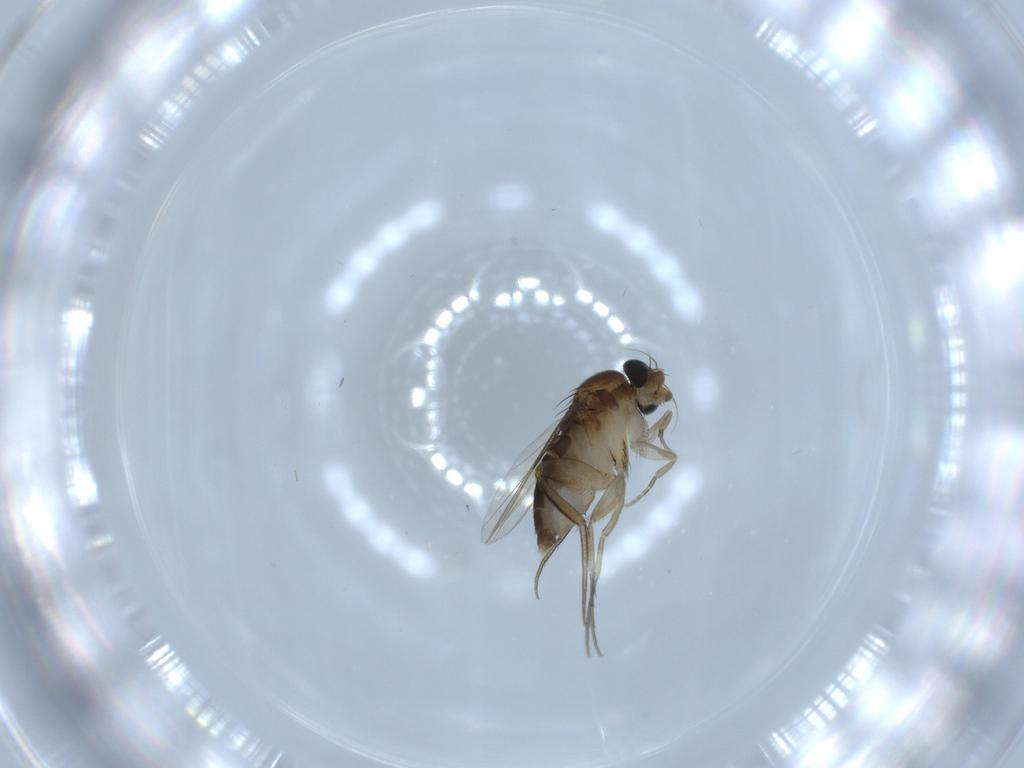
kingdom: Animalia
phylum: Arthropoda
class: Insecta
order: Diptera
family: Phoridae
